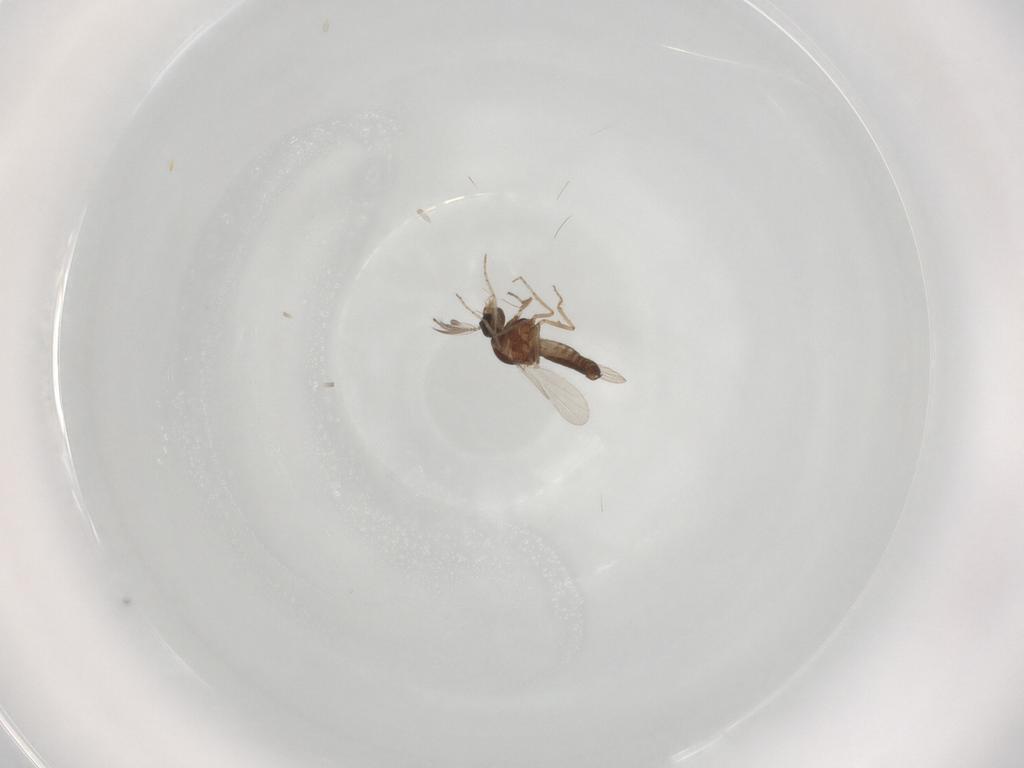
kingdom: Animalia
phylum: Arthropoda
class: Insecta
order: Diptera
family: Ceratopogonidae
